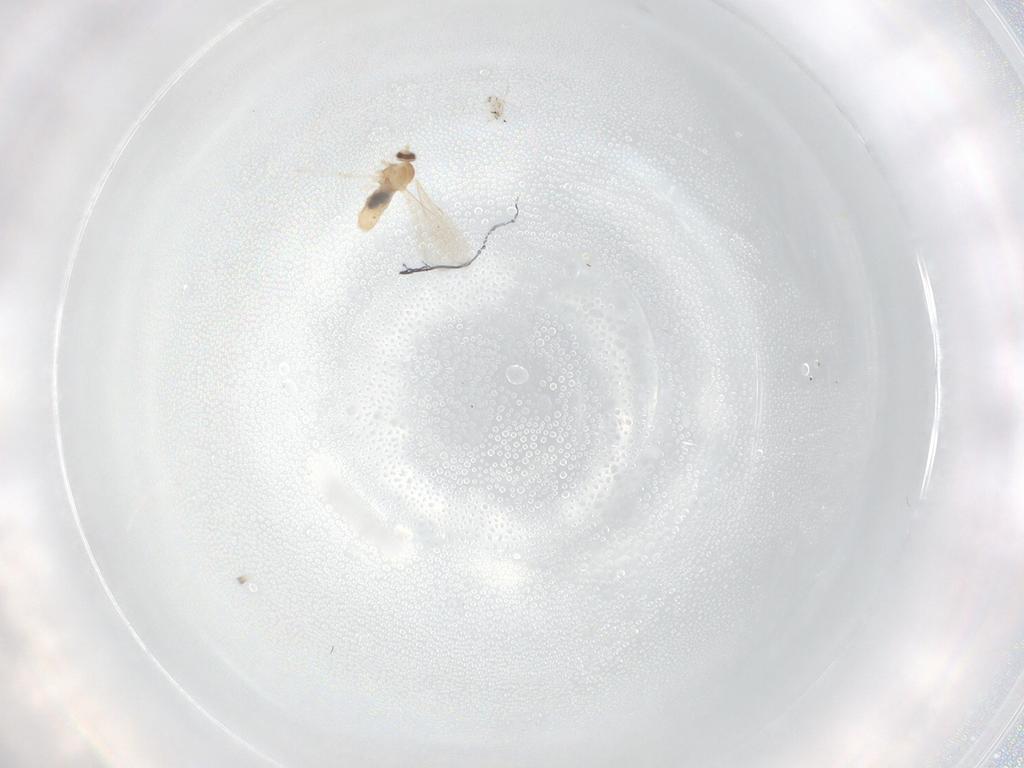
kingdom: Animalia
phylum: Arthropoda
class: Insecta
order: Diptera
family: Cecidomyiidae
